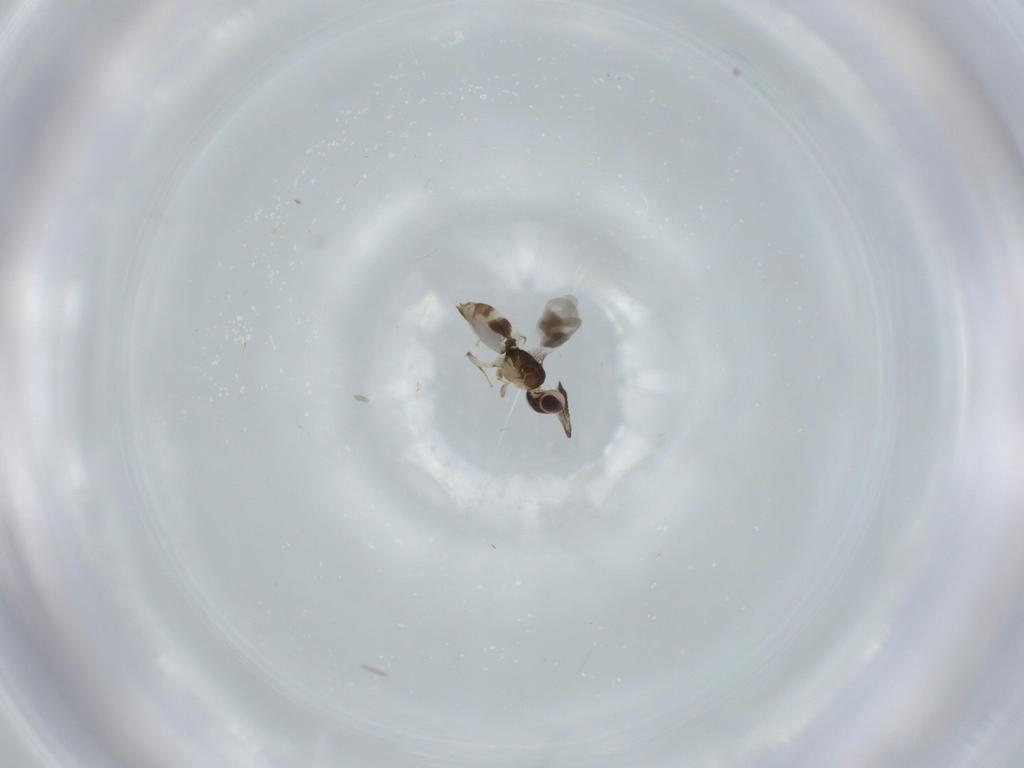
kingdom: Animalia
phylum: Arthropoda
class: Insecta
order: Hymenoptera
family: Ceraphronidae
